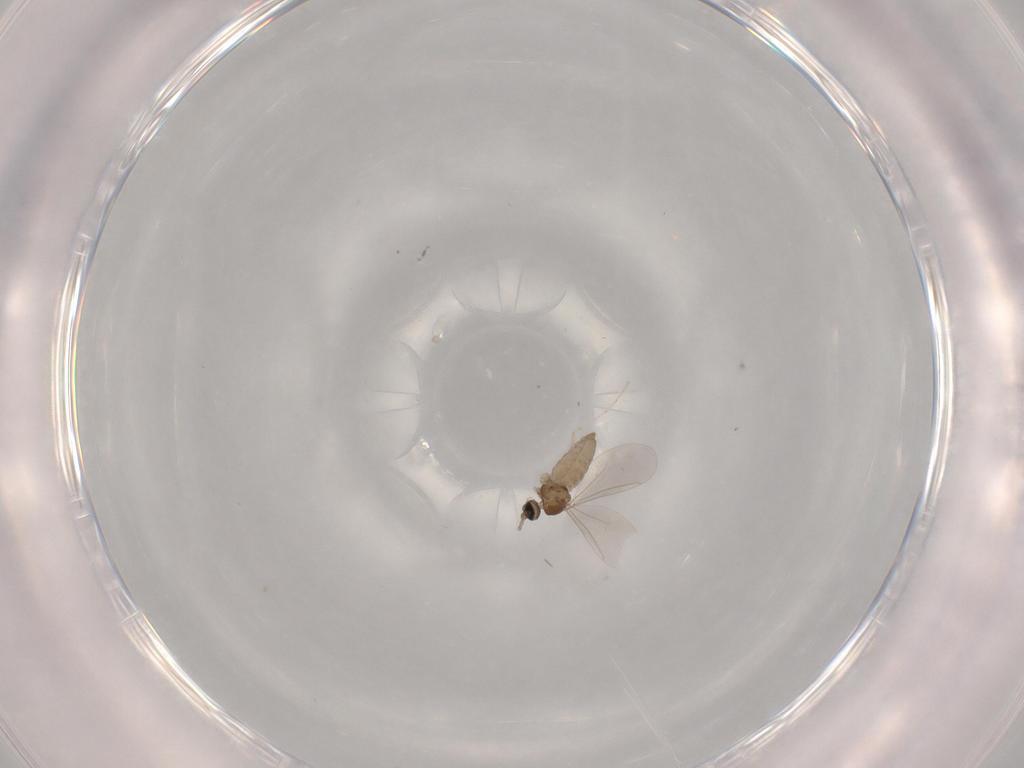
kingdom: Animalia
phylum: Arthropoda
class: Insecta
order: Diptera
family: Cecidomyiidae
